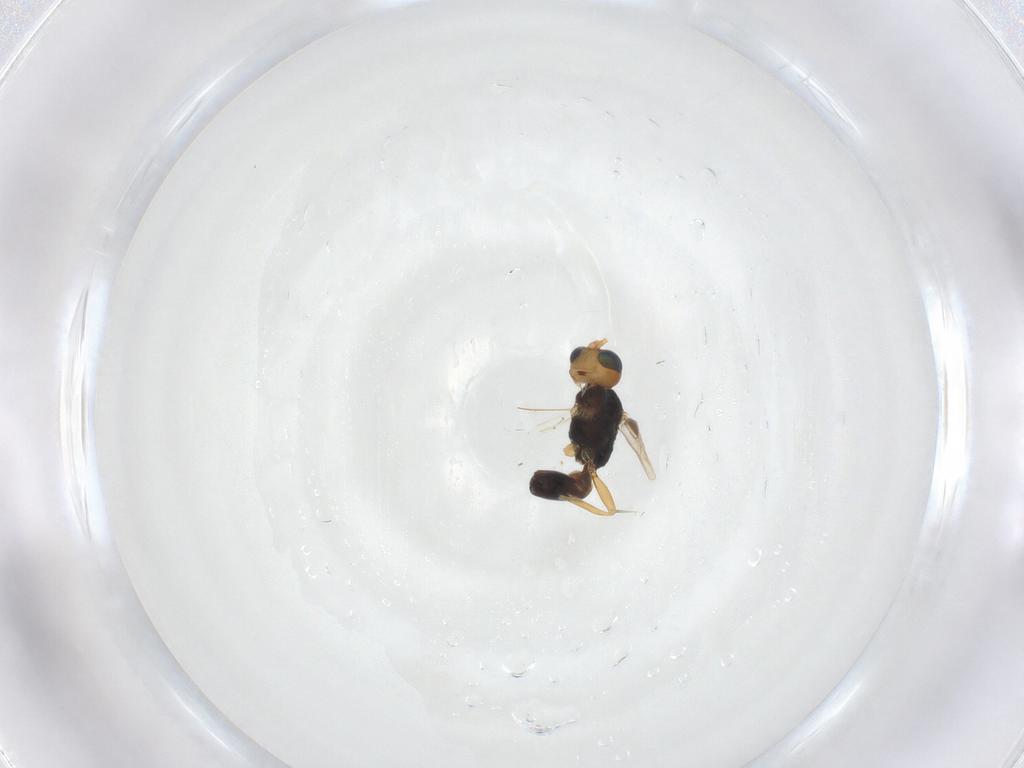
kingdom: Animalia
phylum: Arthropoda
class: Insecta
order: Hymenoptera
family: Braconidae
